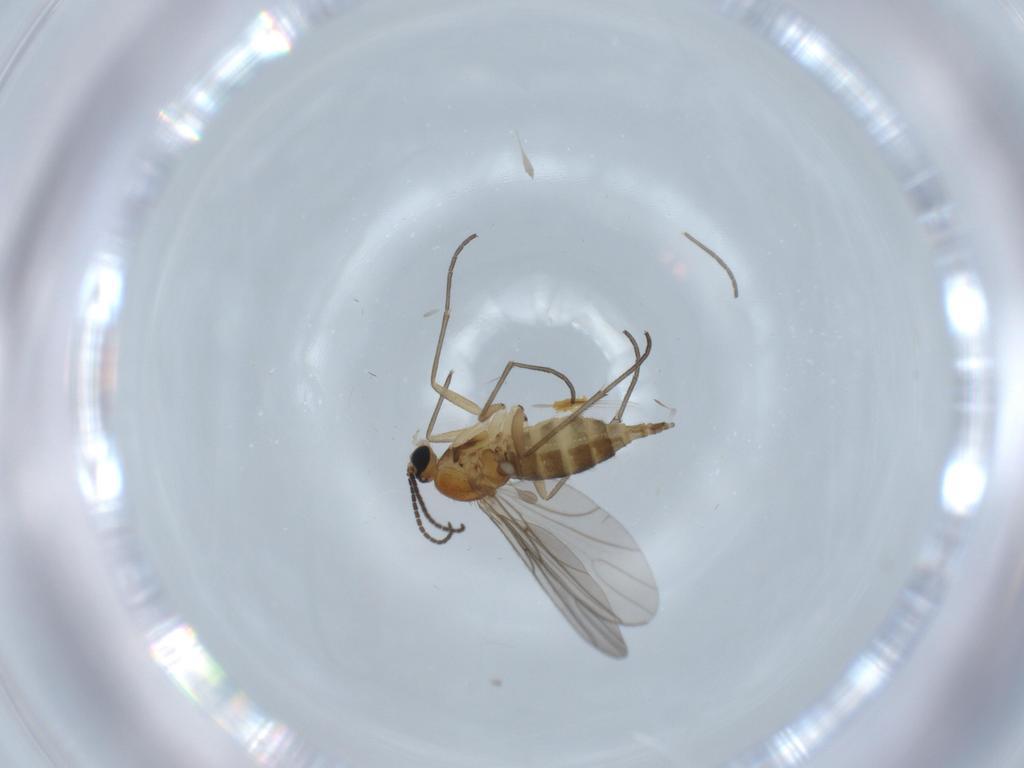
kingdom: Animalia
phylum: Arthropoda
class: Insecta
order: Diptera
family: Sciaridae
